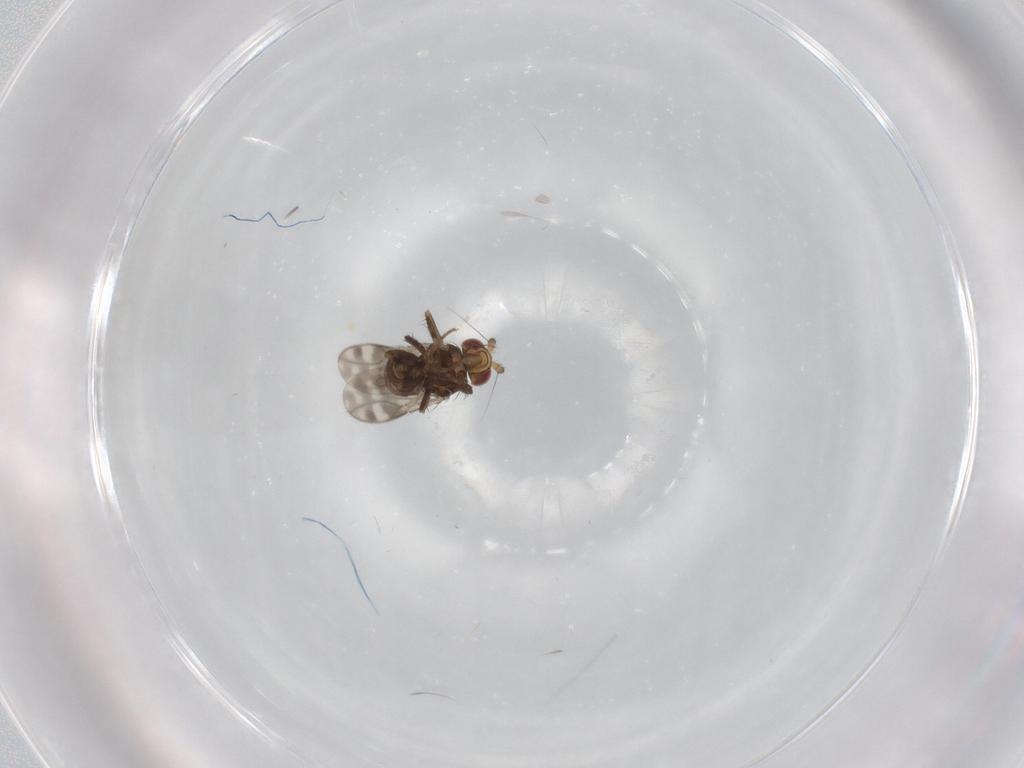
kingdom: Animalia
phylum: Arthropoda
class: Insecta
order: Diptera
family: Sphaeroceridae
